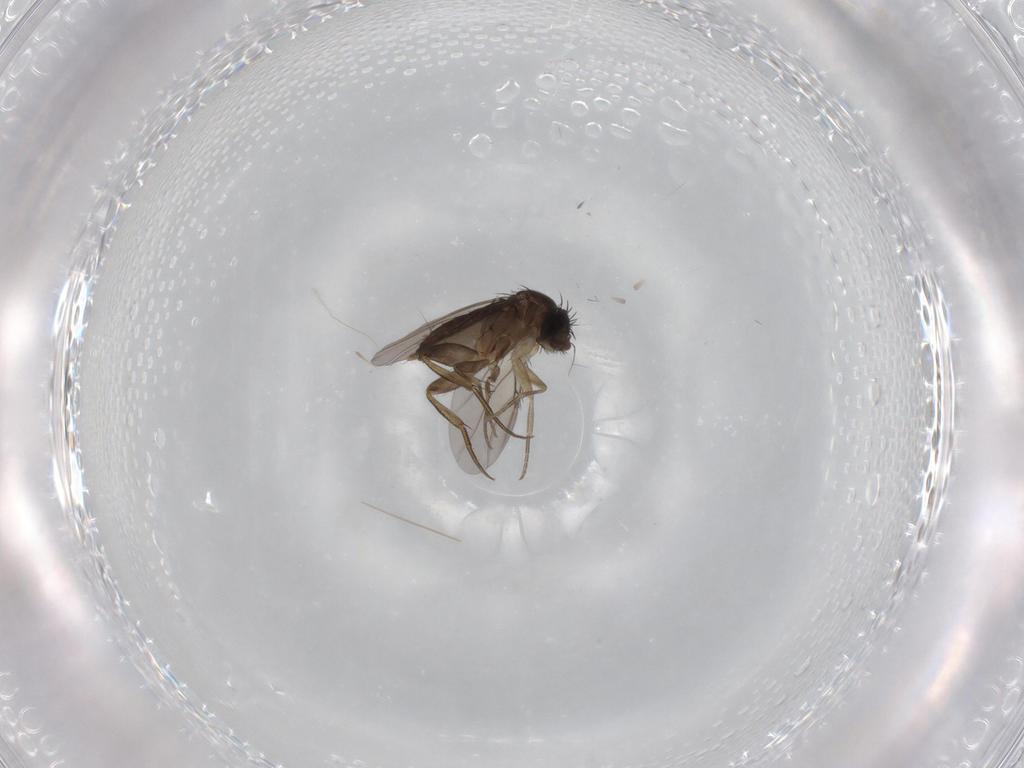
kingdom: Animalia
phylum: Arthropoda
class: Insecta
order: Diptera
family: Phoridae
